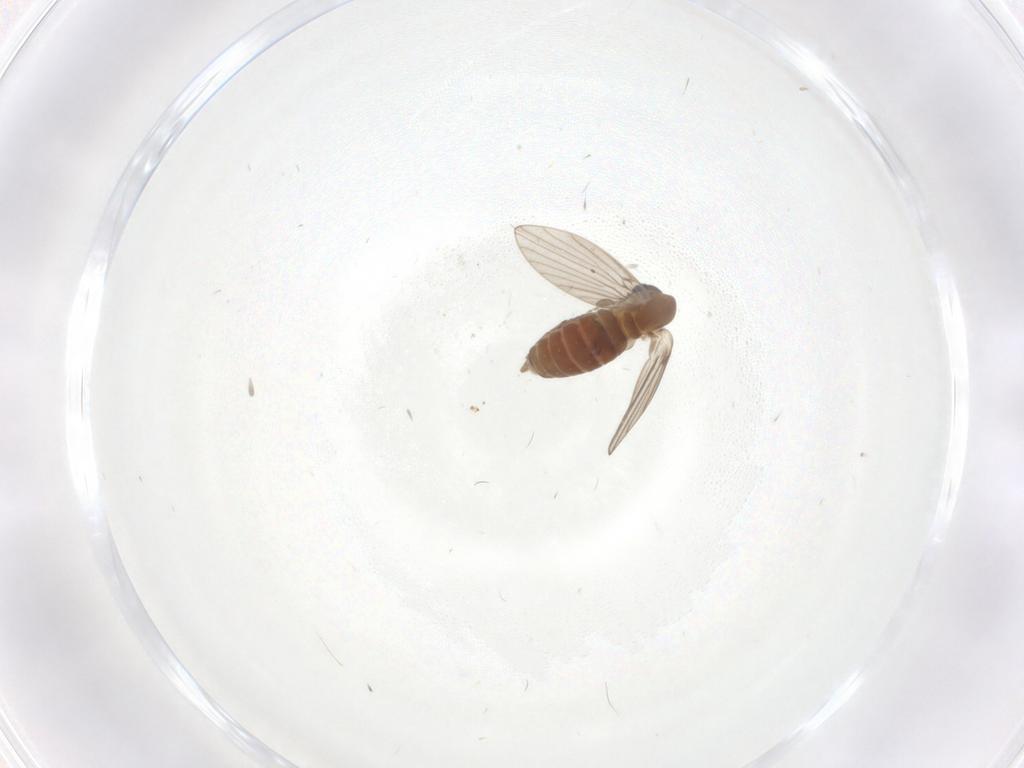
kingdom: Animalia
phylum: Arthropoda
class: Insecta
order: Diptera
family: Psychodidae
